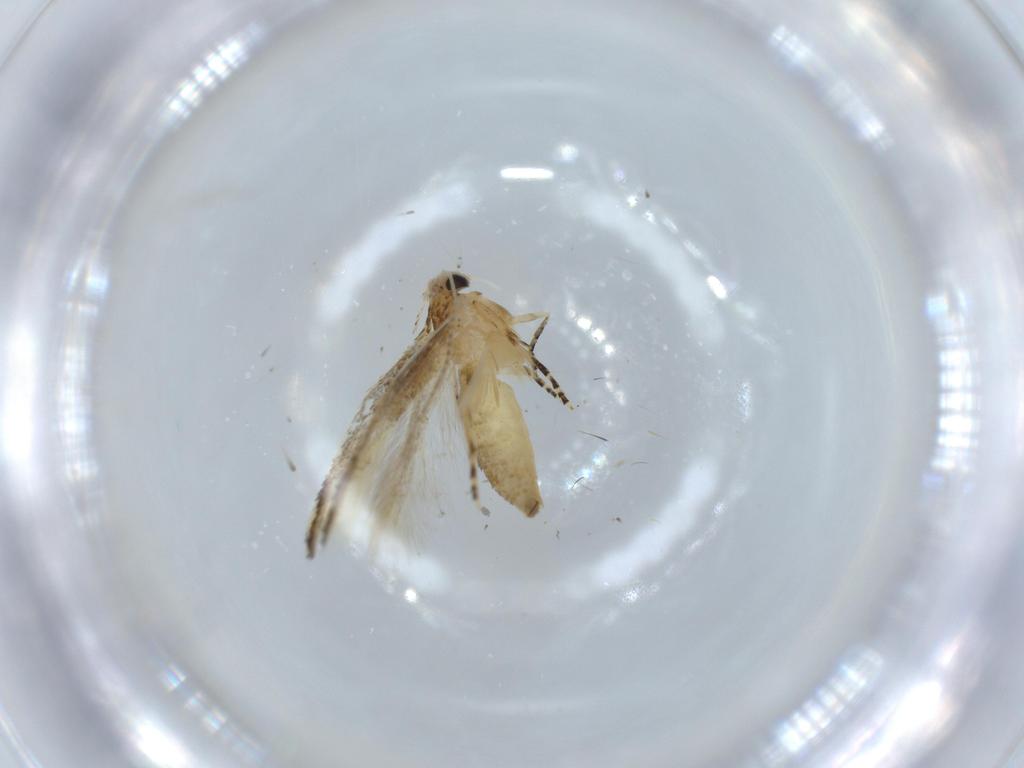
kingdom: Animalia
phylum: Arthropoda
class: Insecta
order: Lepidoptera
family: Bucculatricidae
